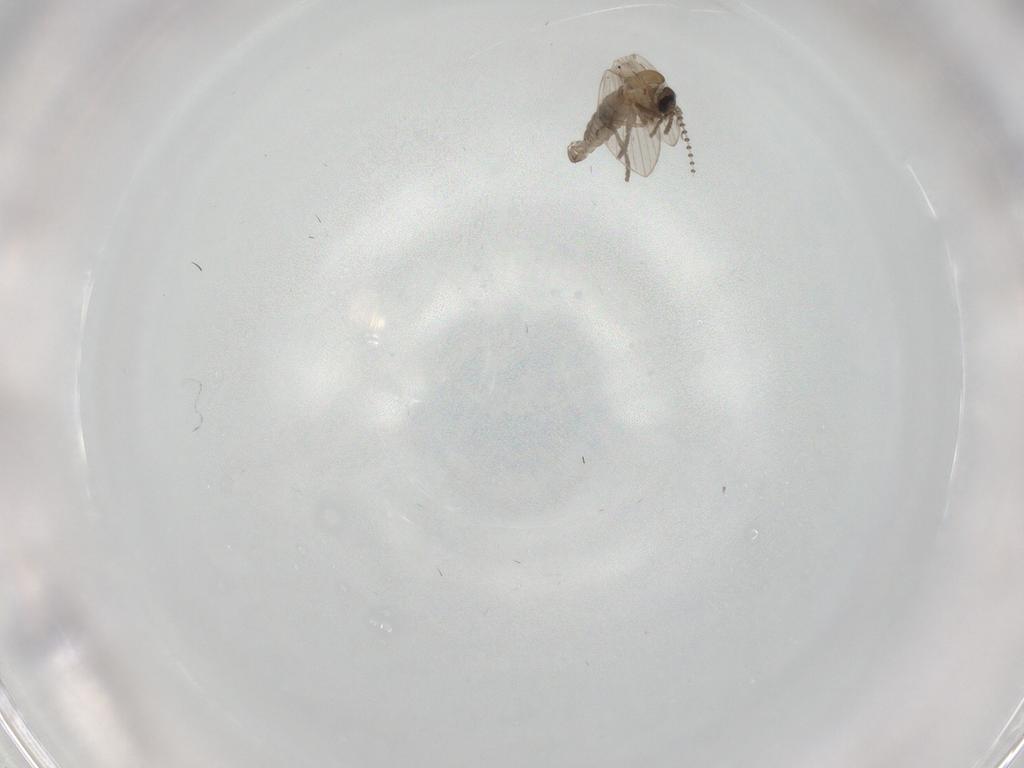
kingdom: Animalia
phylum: Arthropoda
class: Insecta
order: Diptera
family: Psychodidae
